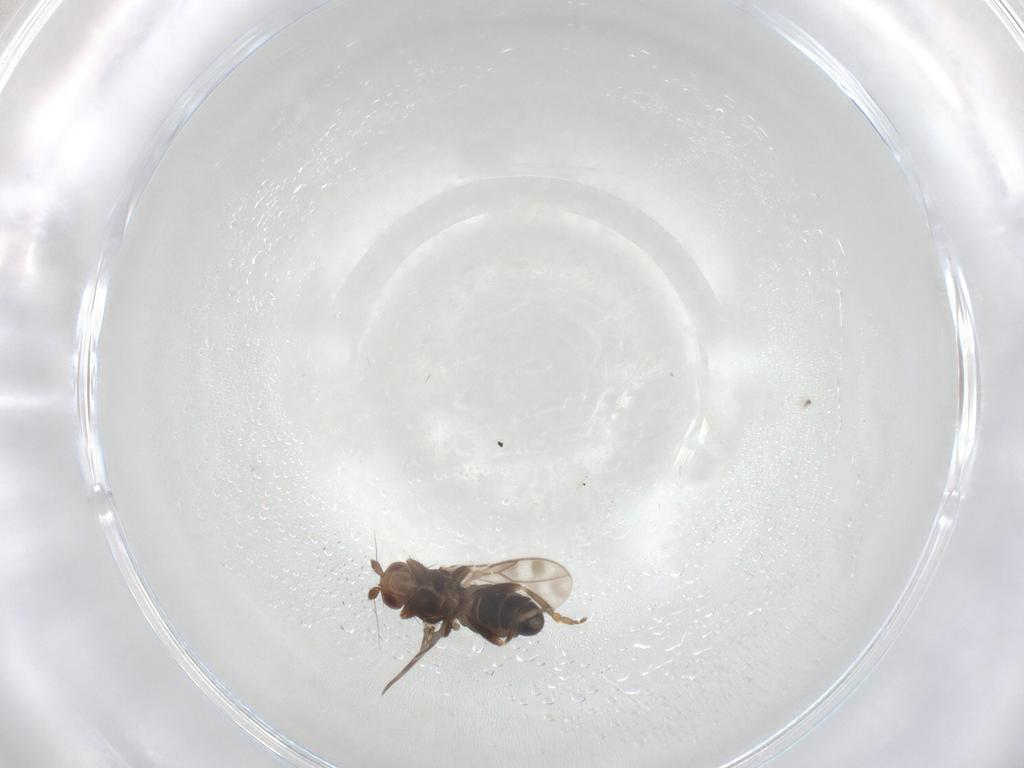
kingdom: Animalia
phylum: Arthropoda
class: Insecta
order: Diptera
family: Sphaeroceridae
